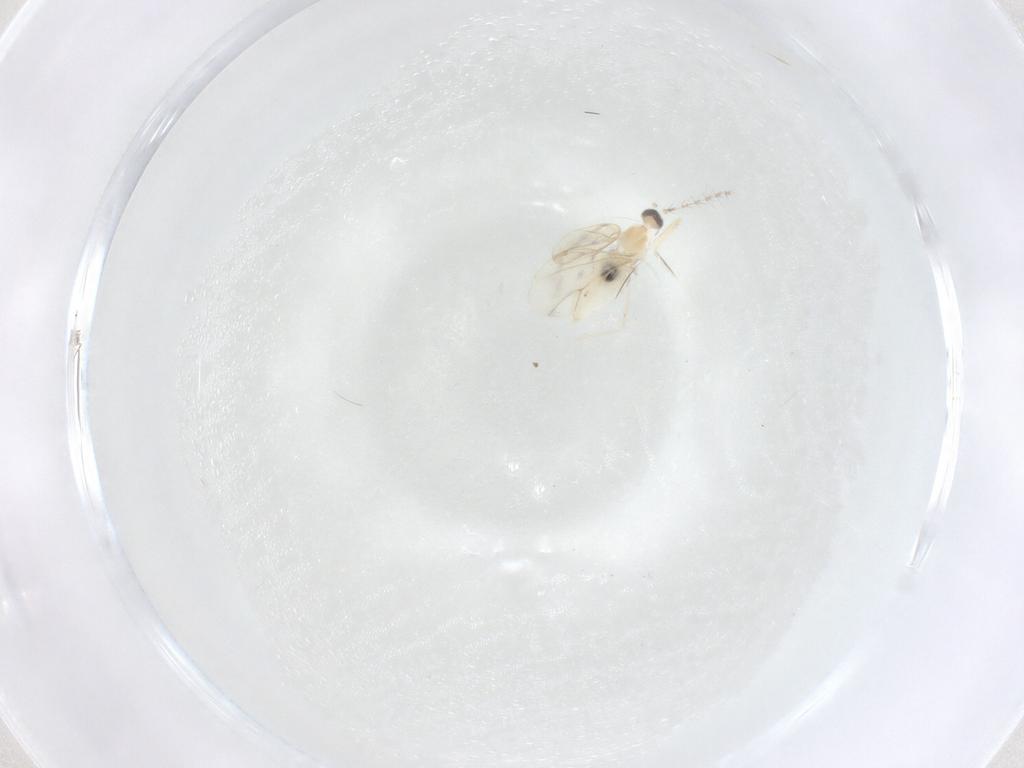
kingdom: Animalia
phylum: Arthropoda
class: Insecta
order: Diptera
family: Cecidomyiidae
